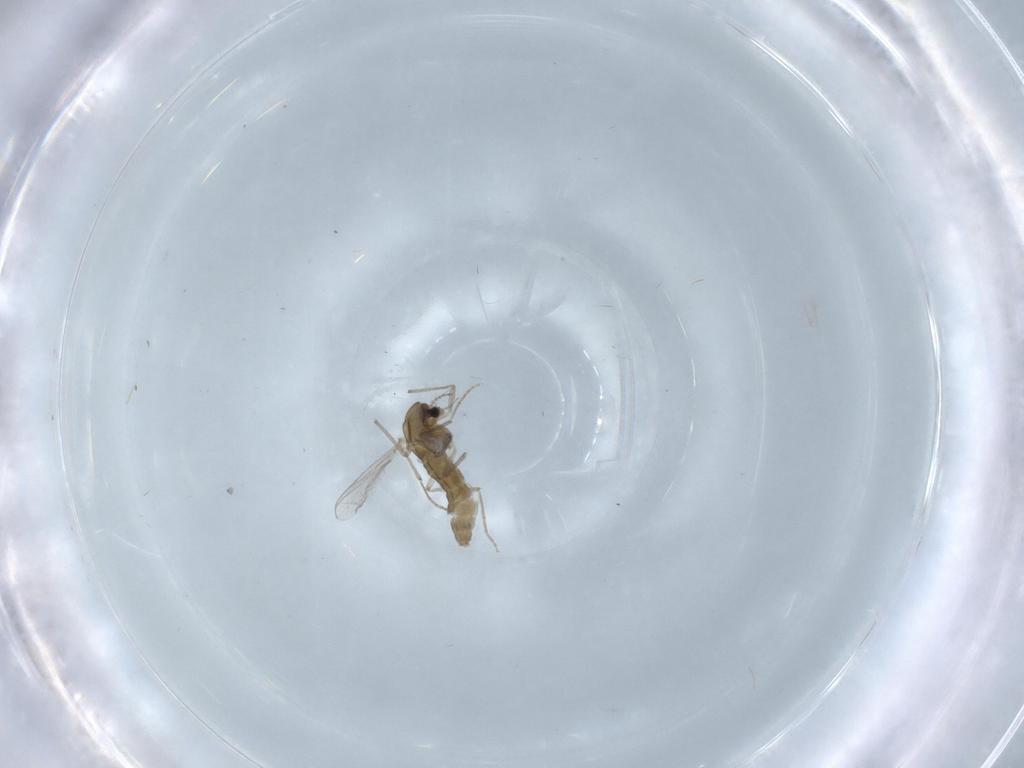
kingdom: Animalia
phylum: Arthropoda
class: Insecta
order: Diptera
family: Chironomidae
